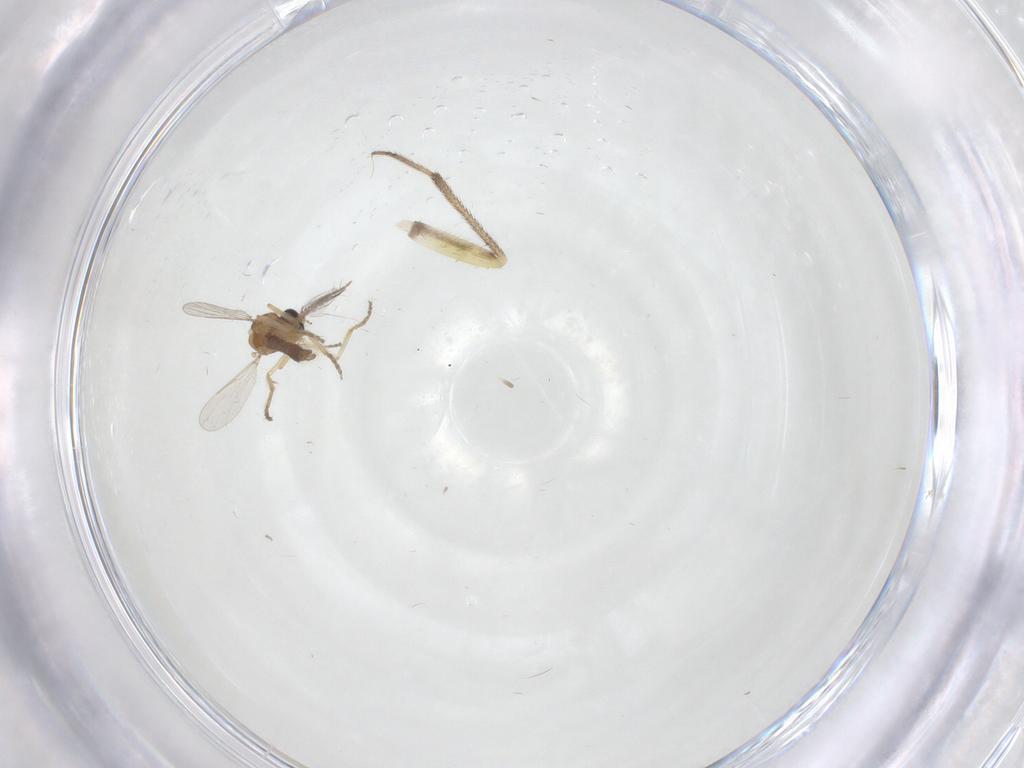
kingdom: Animalia
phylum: Arthropoda
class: Insecta
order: Diptera
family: Ceratopogonidae
